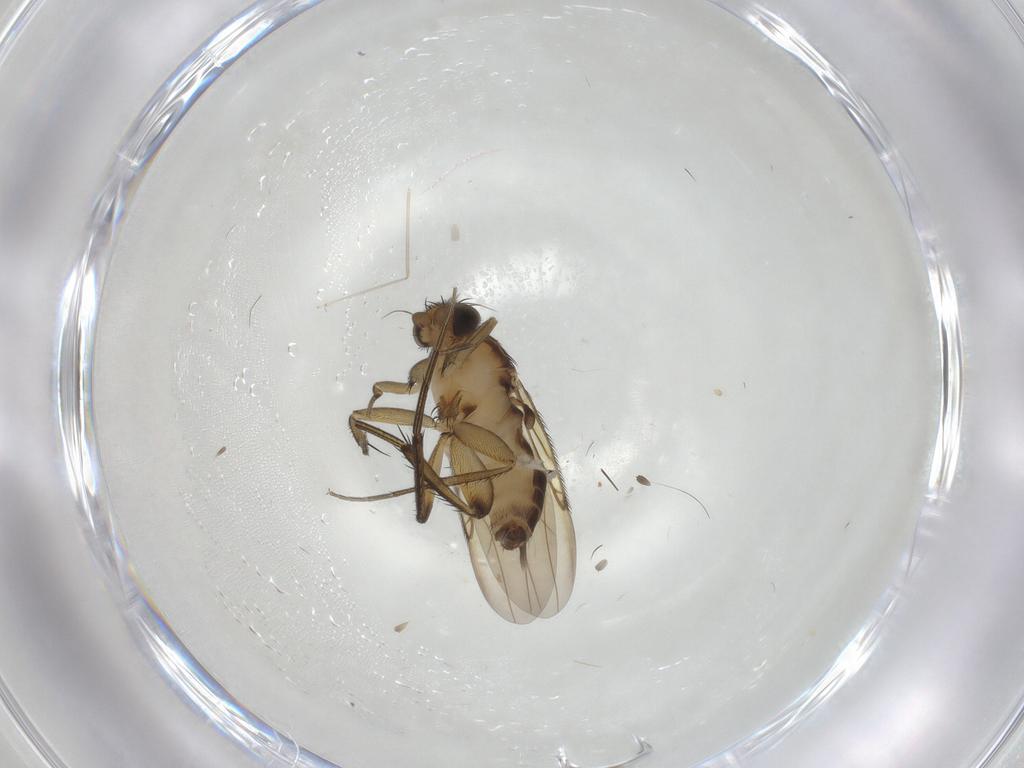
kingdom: Animalia
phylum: Arthropoda
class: Insecta
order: Diptera
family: Phoridae
